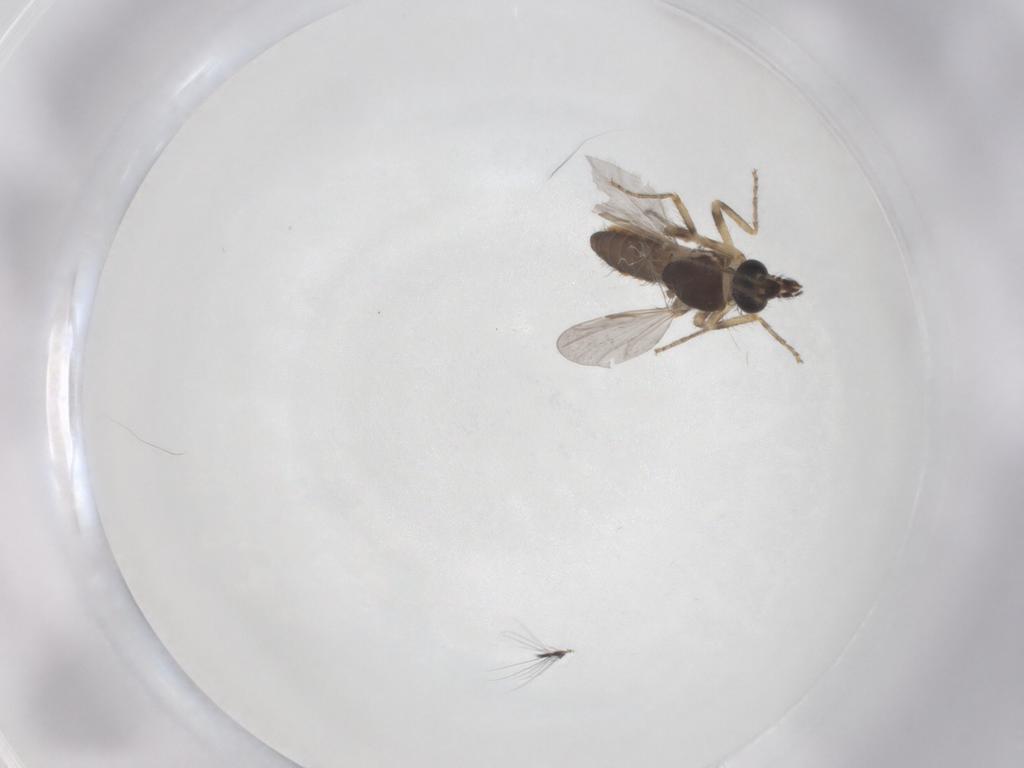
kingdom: Animalia
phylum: Arthropoda
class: Insecta
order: Diptera
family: Ceratopogonidae
